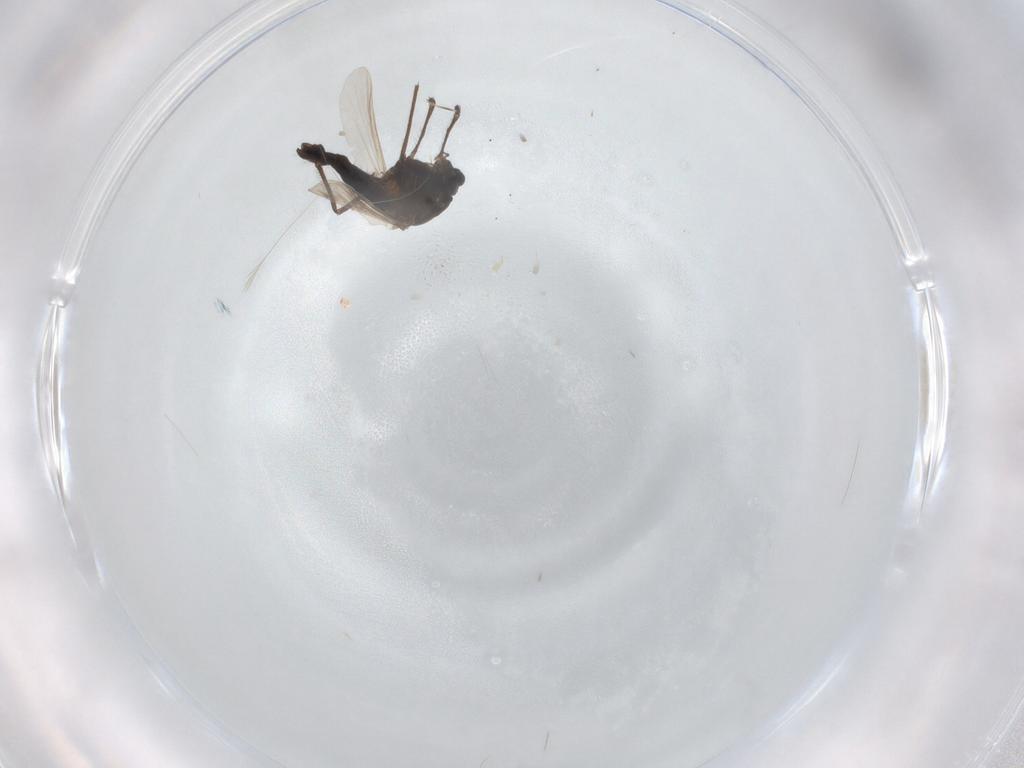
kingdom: Animalia
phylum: Arthropoda
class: Insecta
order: Diptera
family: Chironomidae
